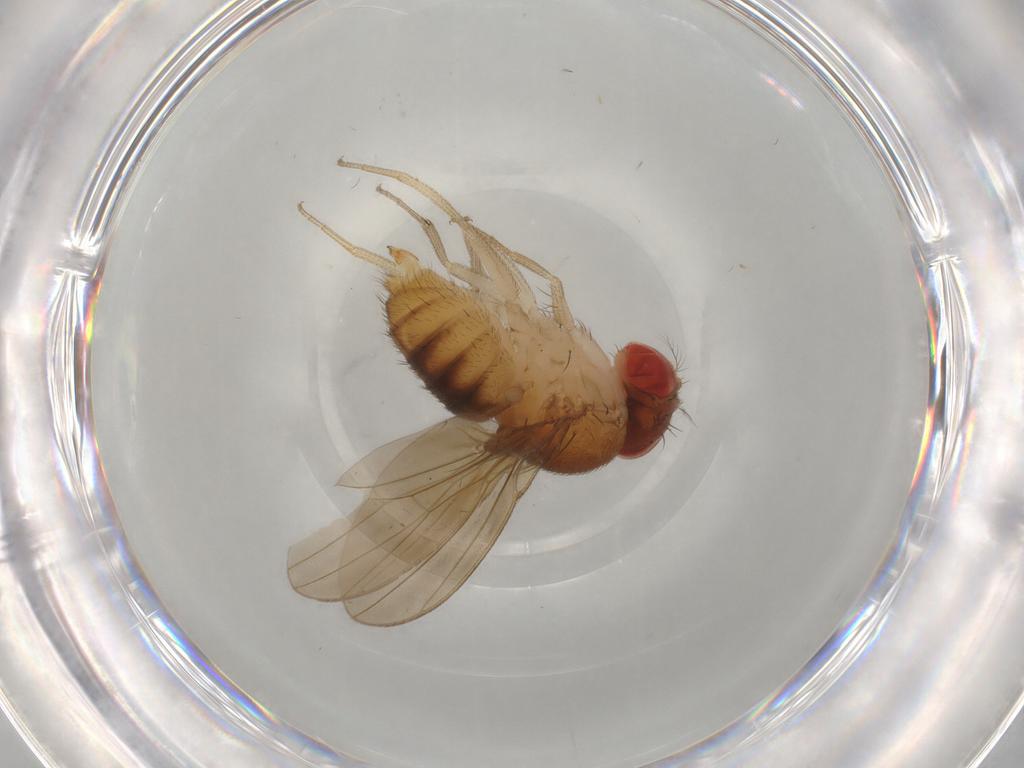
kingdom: Animalia
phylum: Arthropoda
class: Insecta
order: Diptera
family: Drosophilidae
